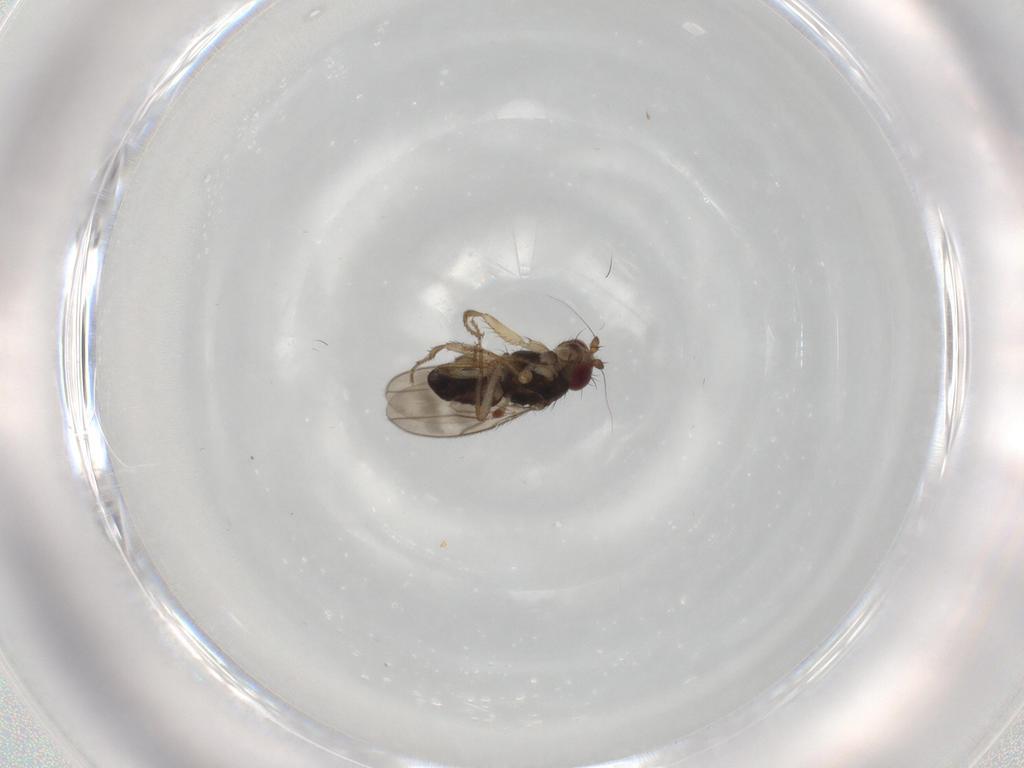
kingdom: Animalia
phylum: Arthropoda
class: Insecta
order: Diptera
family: Sphaeroceridae
